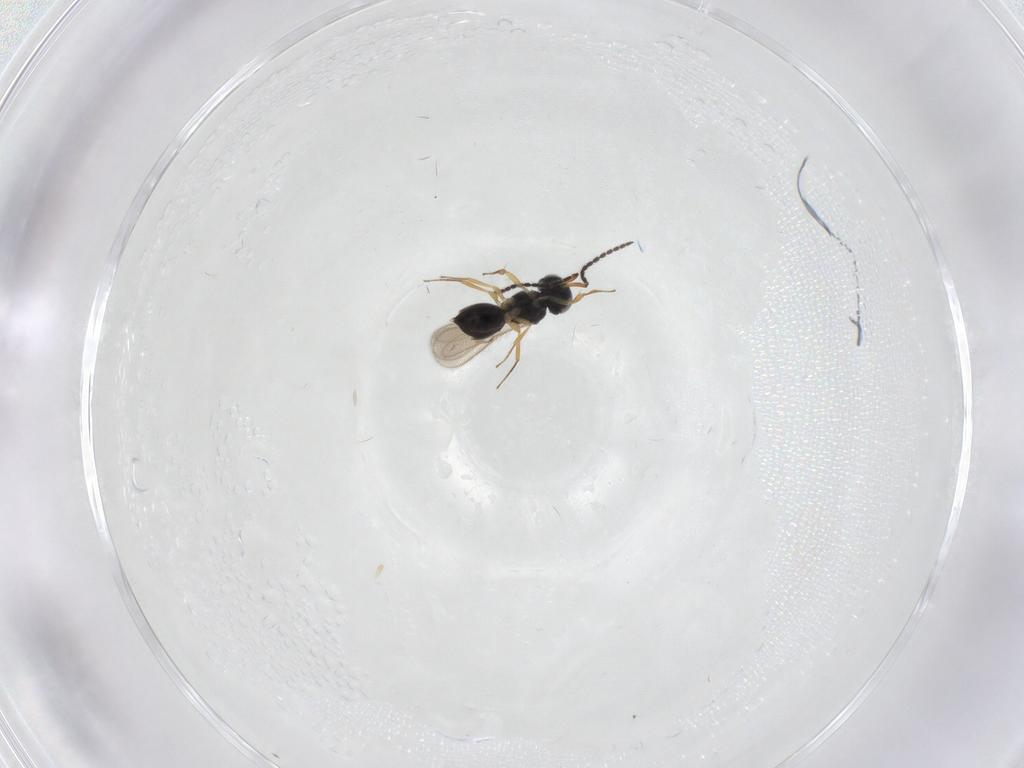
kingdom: Animalia
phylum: Arthropoda
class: Insecta
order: Hymenoptera
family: Scelionidae
